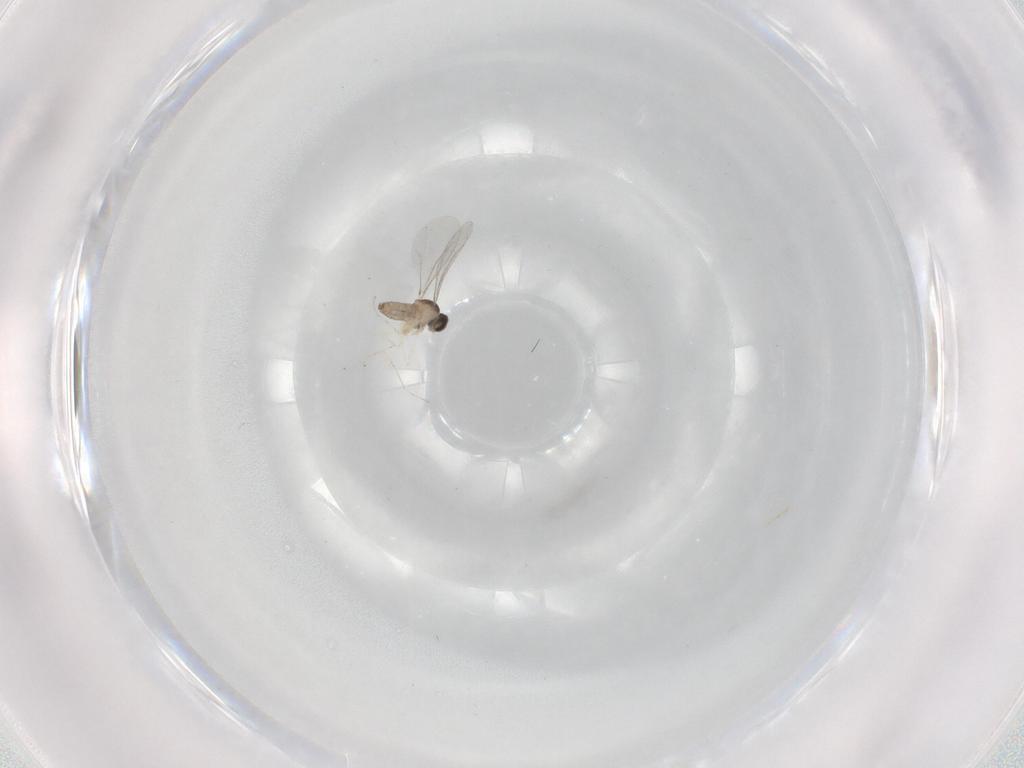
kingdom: Animalia
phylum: Arthropoda
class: Insecta
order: Diptera
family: Cecidomyiidae
